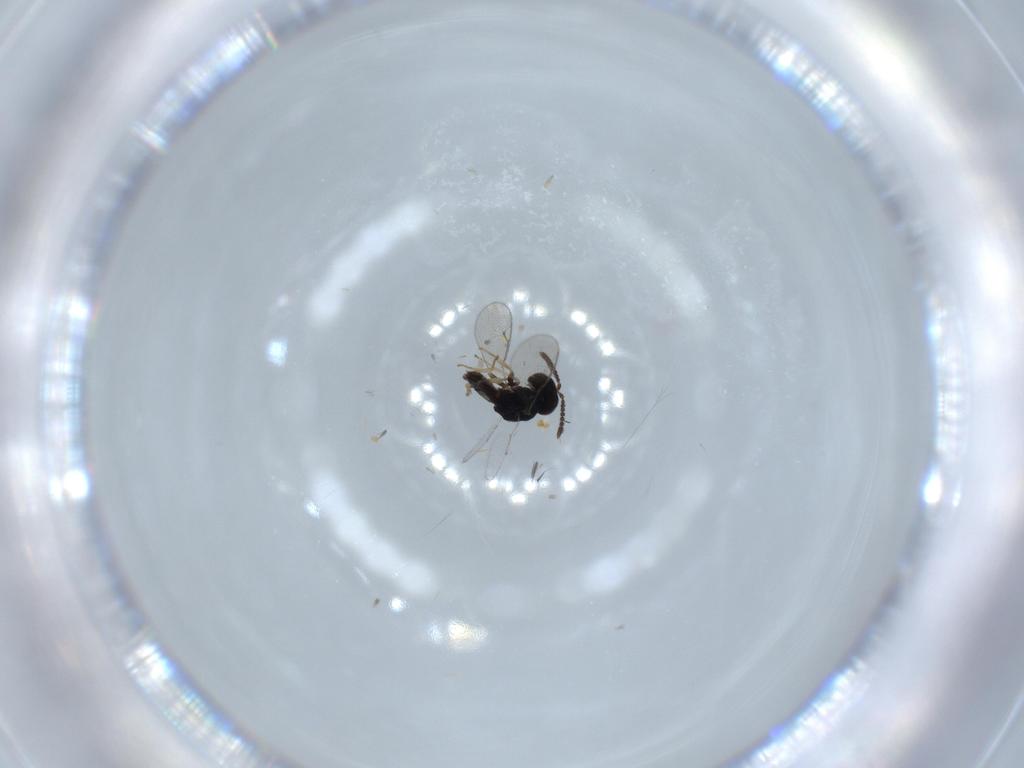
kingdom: Animalia
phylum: Arthropoda
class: Insecta
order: Hymenoptera
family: Pteromalidae
